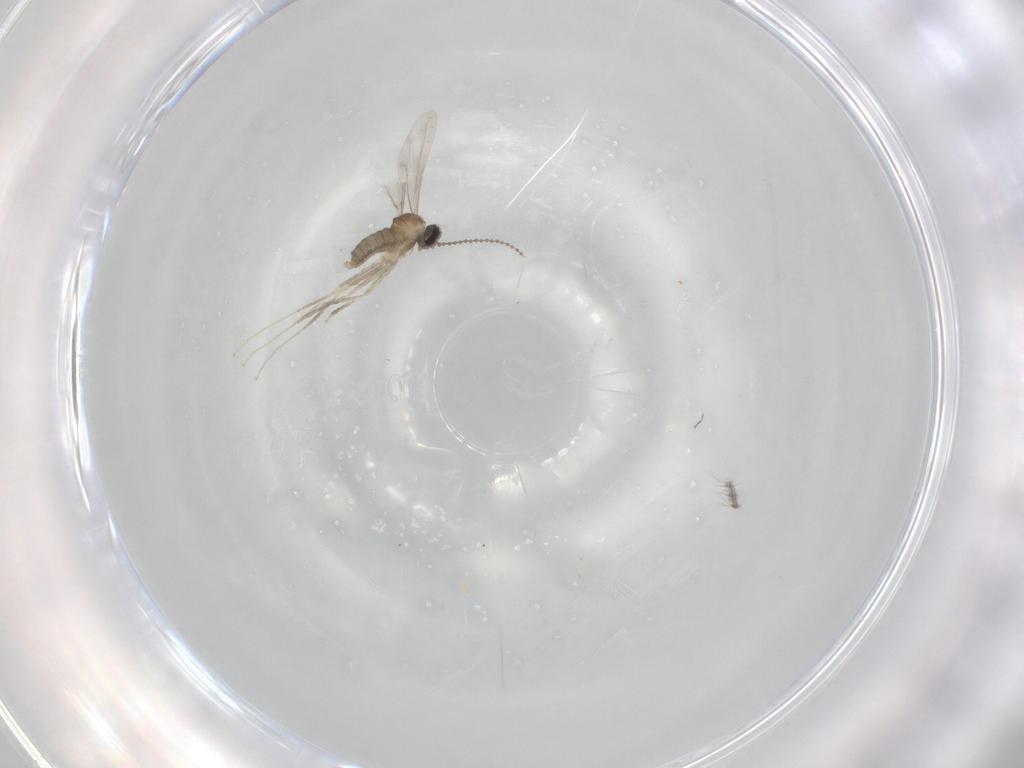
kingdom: Animalia
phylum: Arthropoda
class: Insecta
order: Diptera
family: Cecidomyiidae
